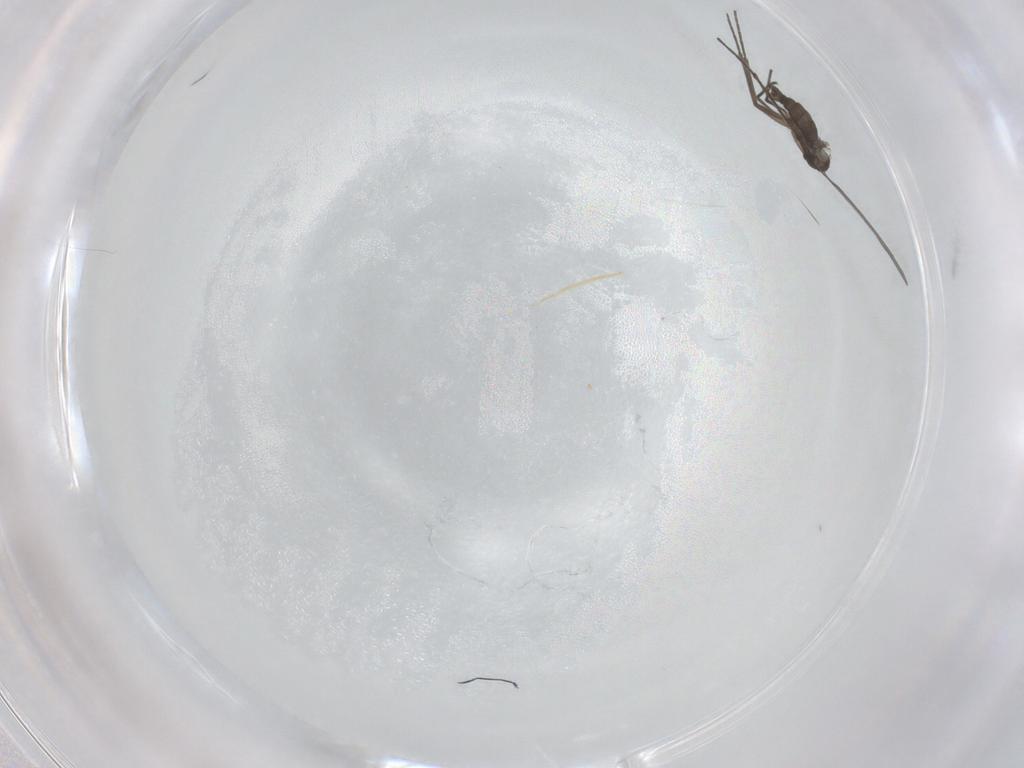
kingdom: Animalia
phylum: Arthropoda
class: Insecta
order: Diptera
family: Sciaridae
